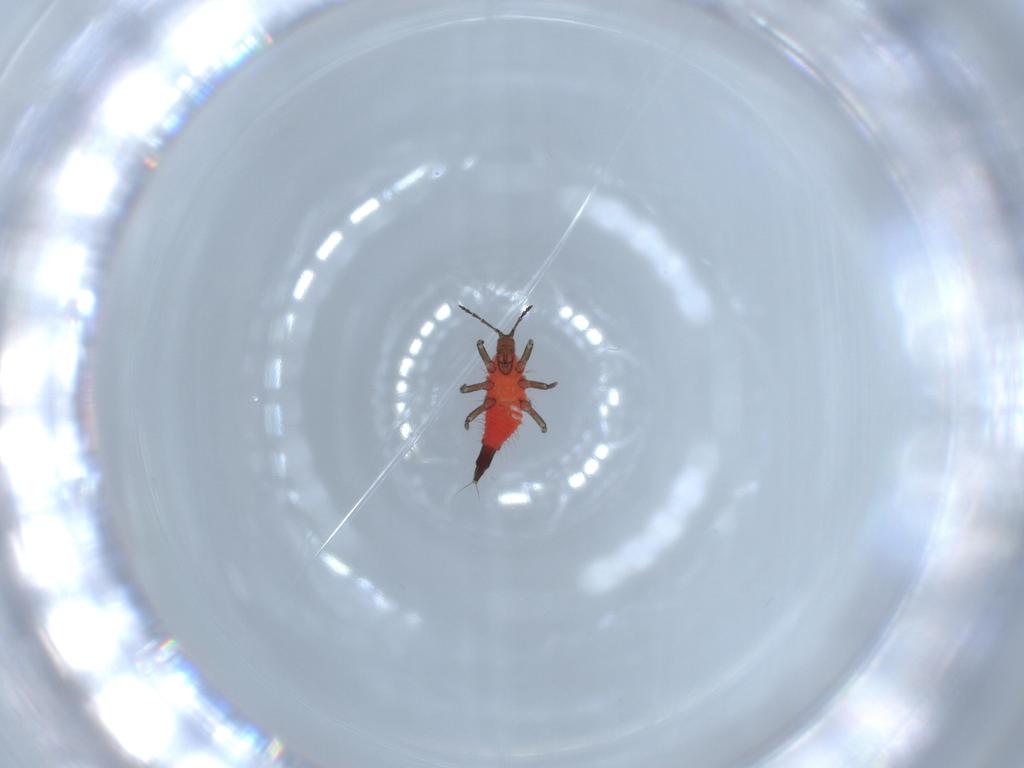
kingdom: Animalia
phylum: Arthropoda
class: Insecta
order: Thysanoptera
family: Phlaeothripidae
